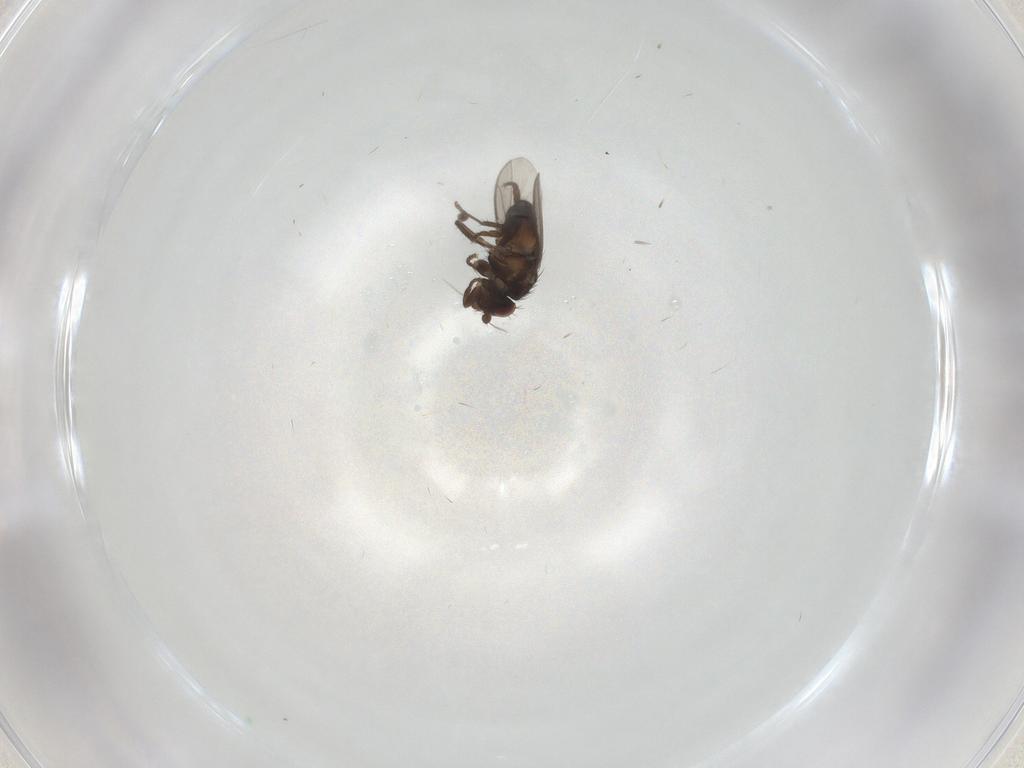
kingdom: Animalia
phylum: Arthropoda
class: Insecta
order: Diptera
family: Sphaeroceridae
